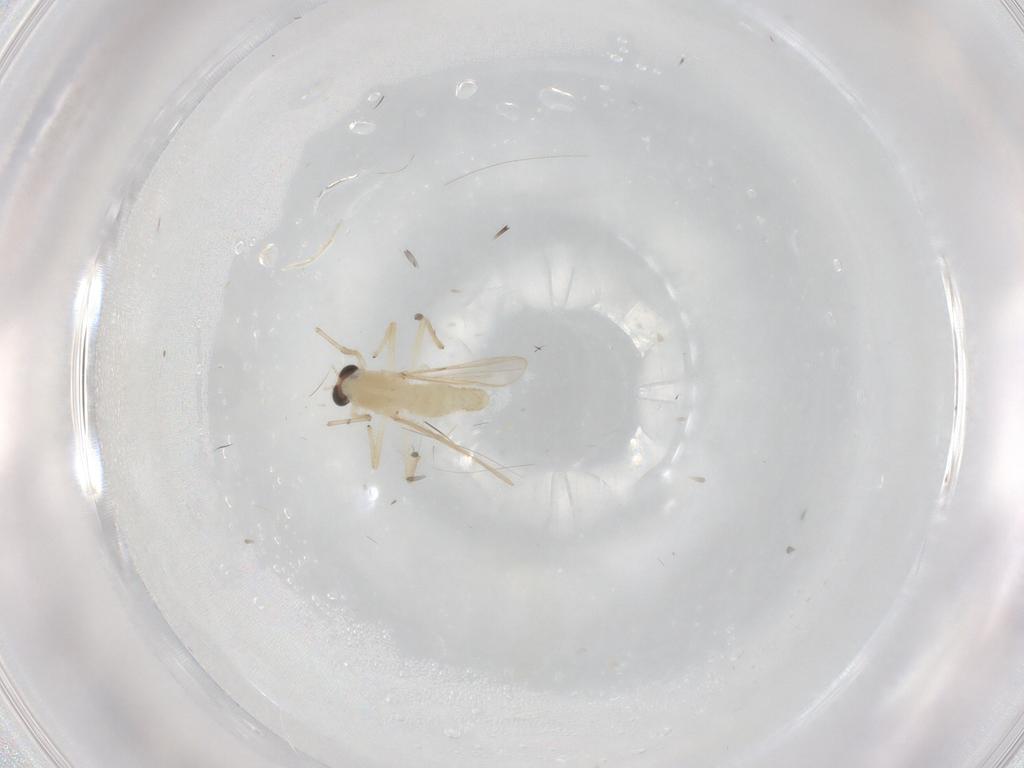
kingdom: Animalia
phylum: Arthropoda
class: Insecta
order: Diptera
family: Chironomidae
